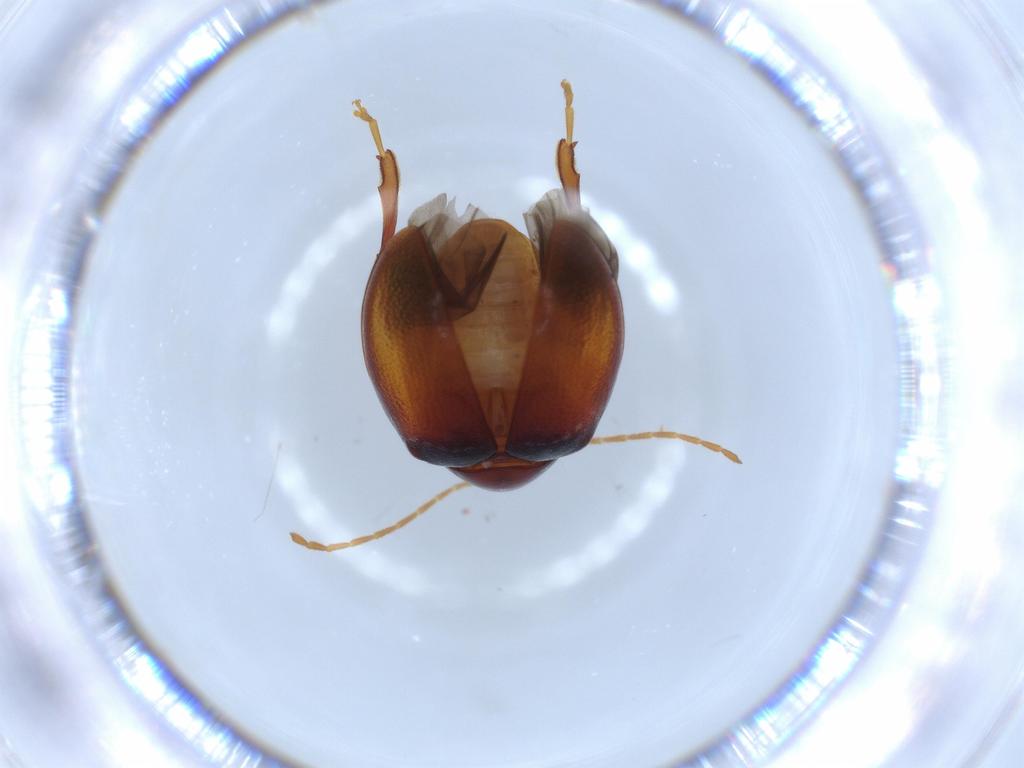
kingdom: Animalia
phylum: Arthropoda
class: Insecta
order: Coleoptera
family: Chrysomelidae
